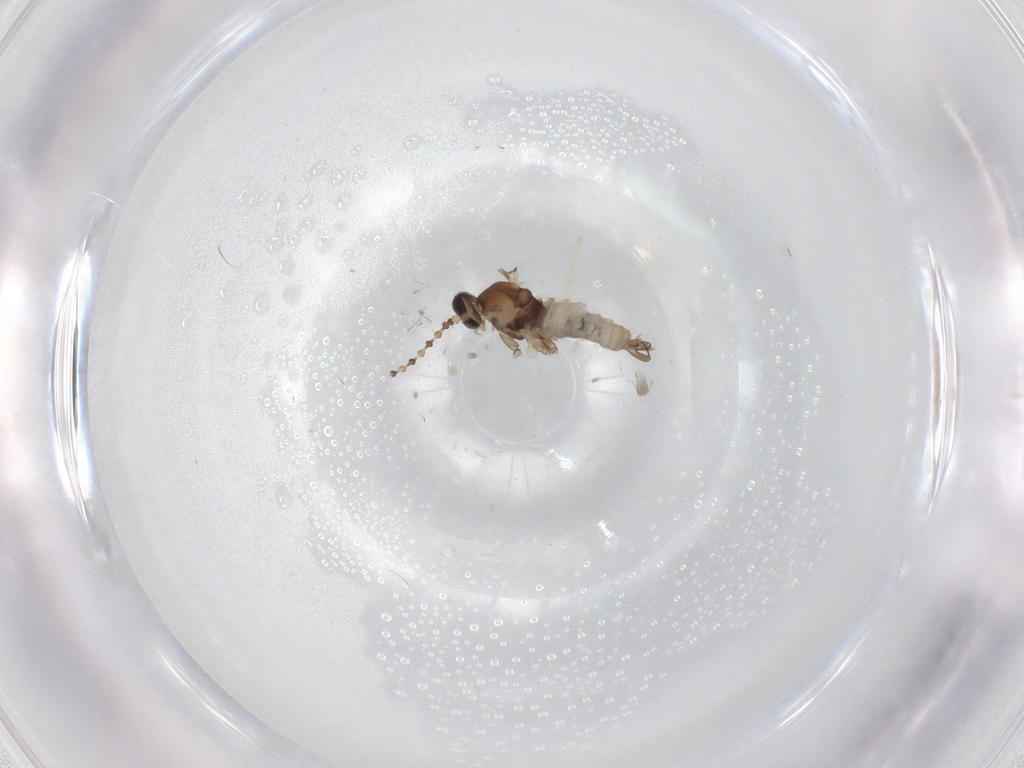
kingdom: Animalia
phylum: Arthropoda
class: Insecta
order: Diptera
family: Cecidomyiidae
